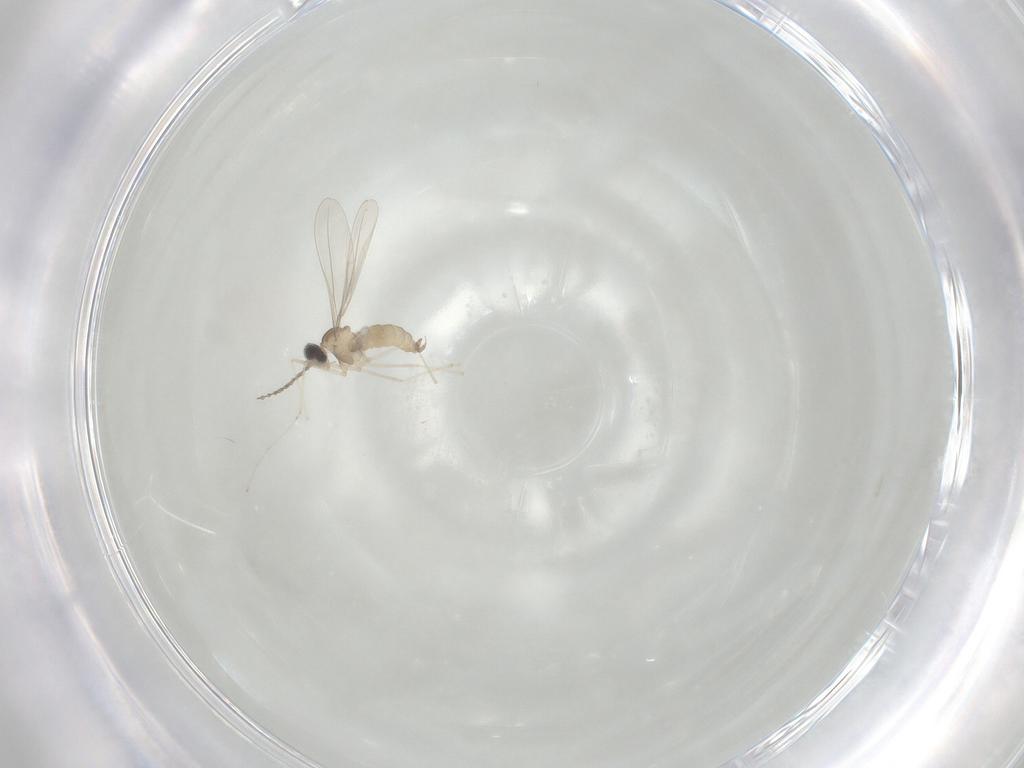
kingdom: Animalia
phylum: Arthropoda
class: Insecta
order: Diptera
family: Cecidomyiidae
